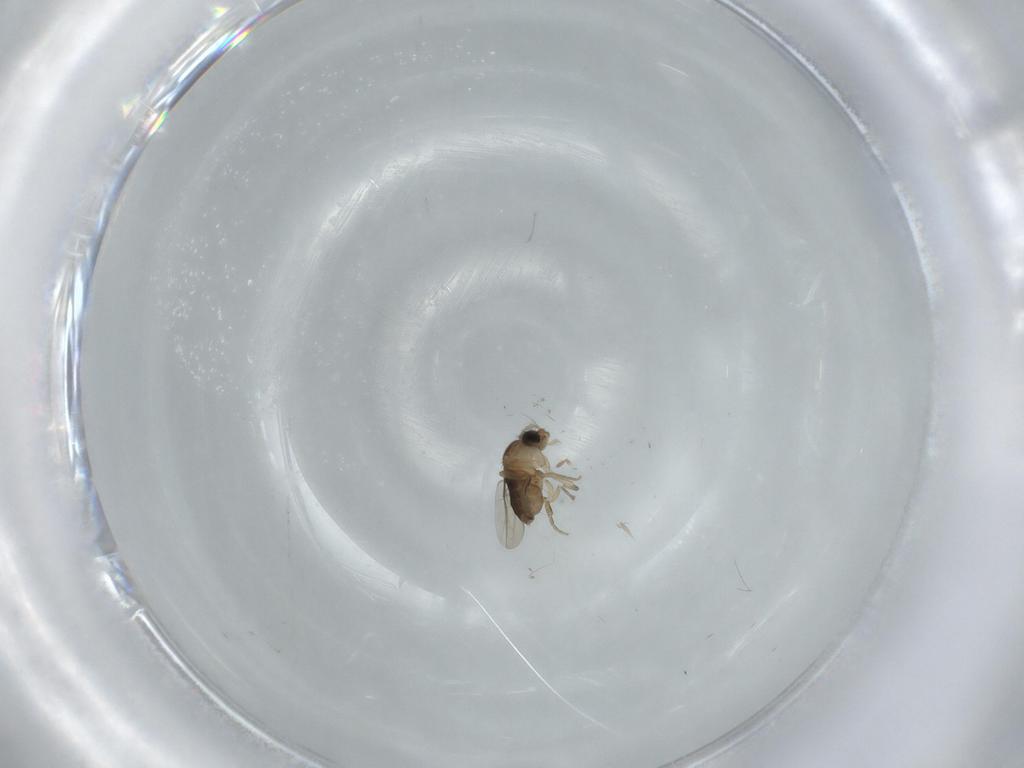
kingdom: Animalia
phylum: Arthropoda
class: Insecta
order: Diptera
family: Phoridae
